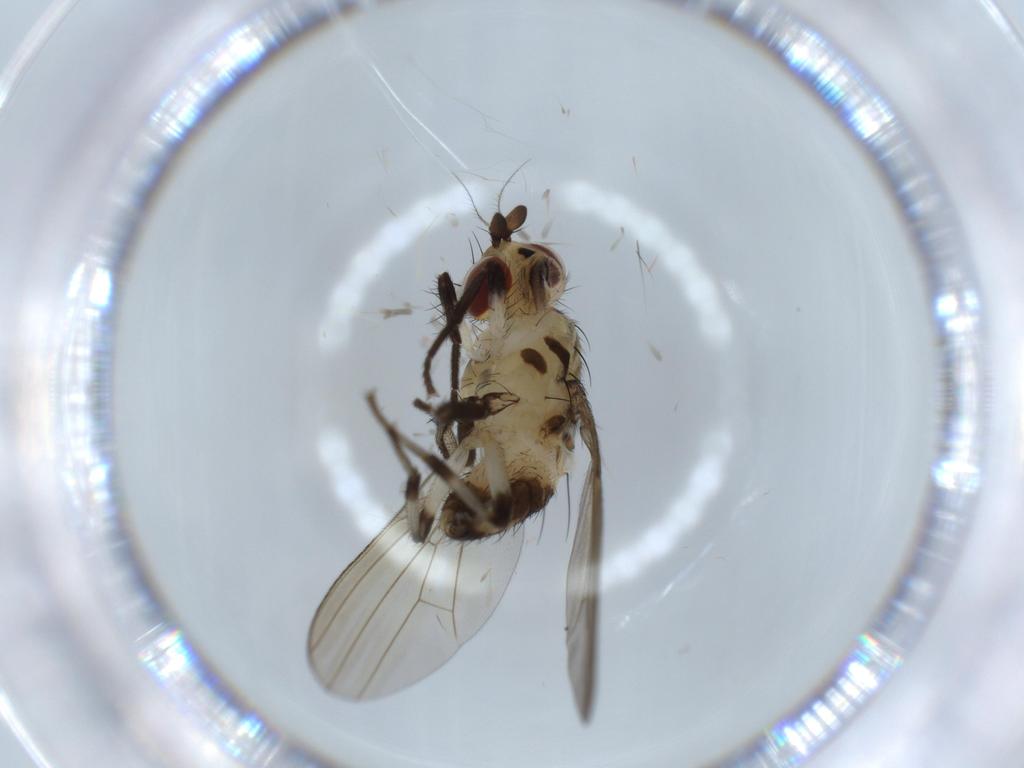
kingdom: Animalia
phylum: Arthropoda
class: Insecta
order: Diptera
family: Lauxaniidae
